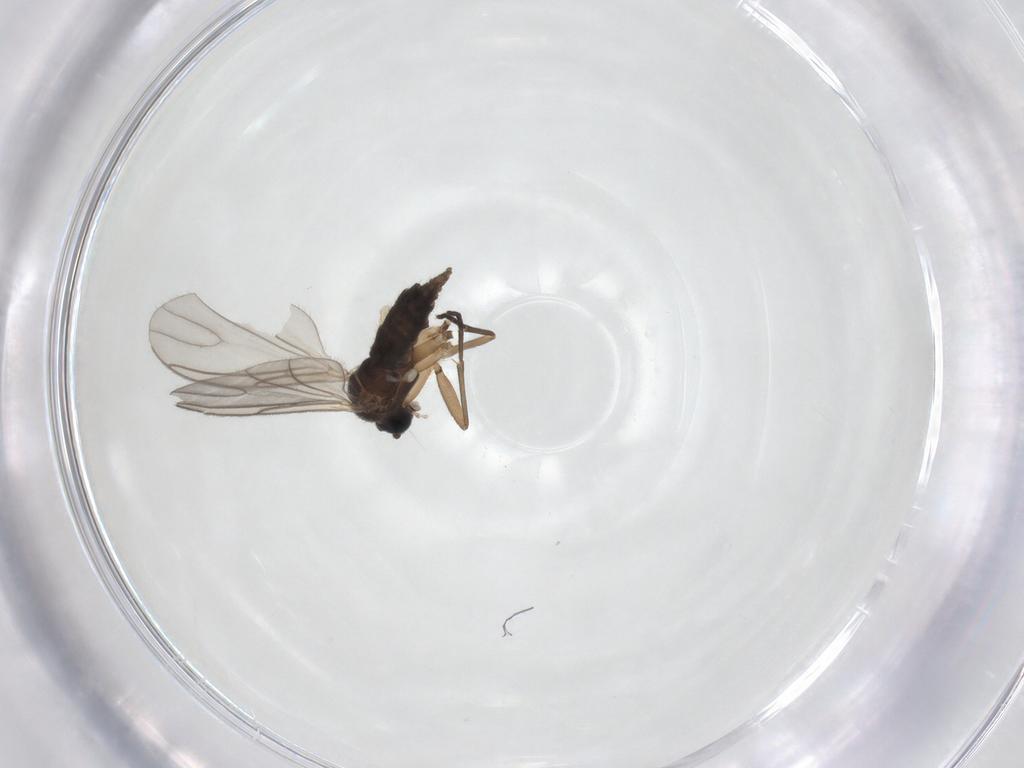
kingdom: Animalia
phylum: Arthropoda
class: Insecta
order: Diptera
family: Sciaridae
